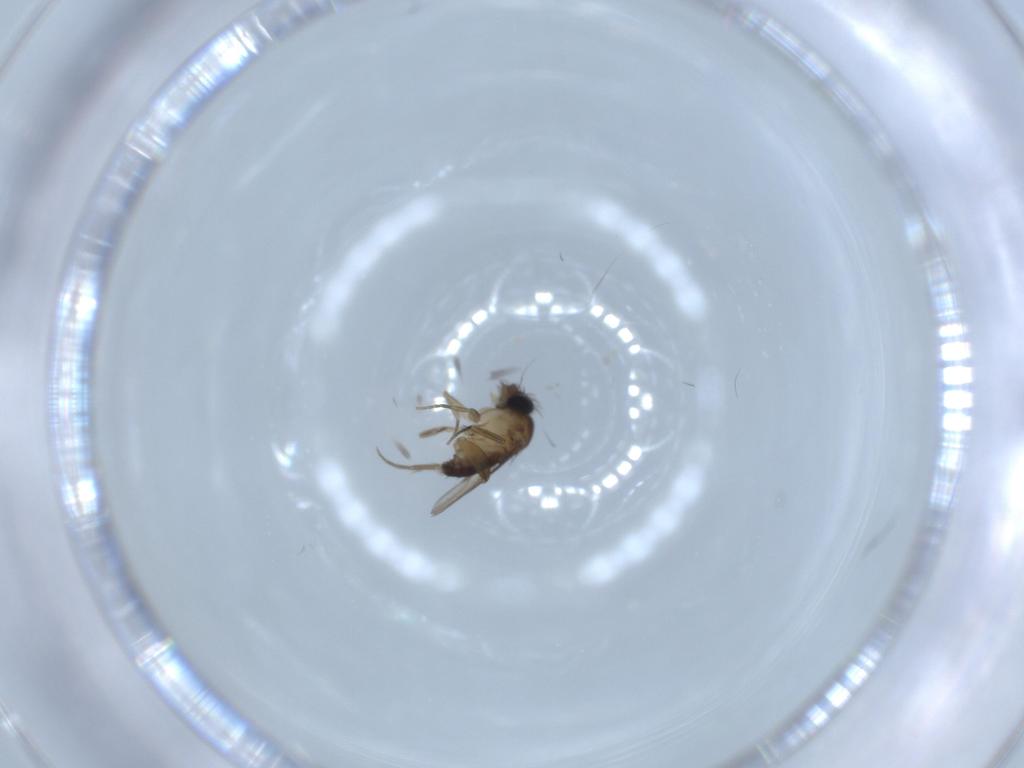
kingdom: Animalia
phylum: Arthropoda
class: Insecta
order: Diptera
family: Phoridae
